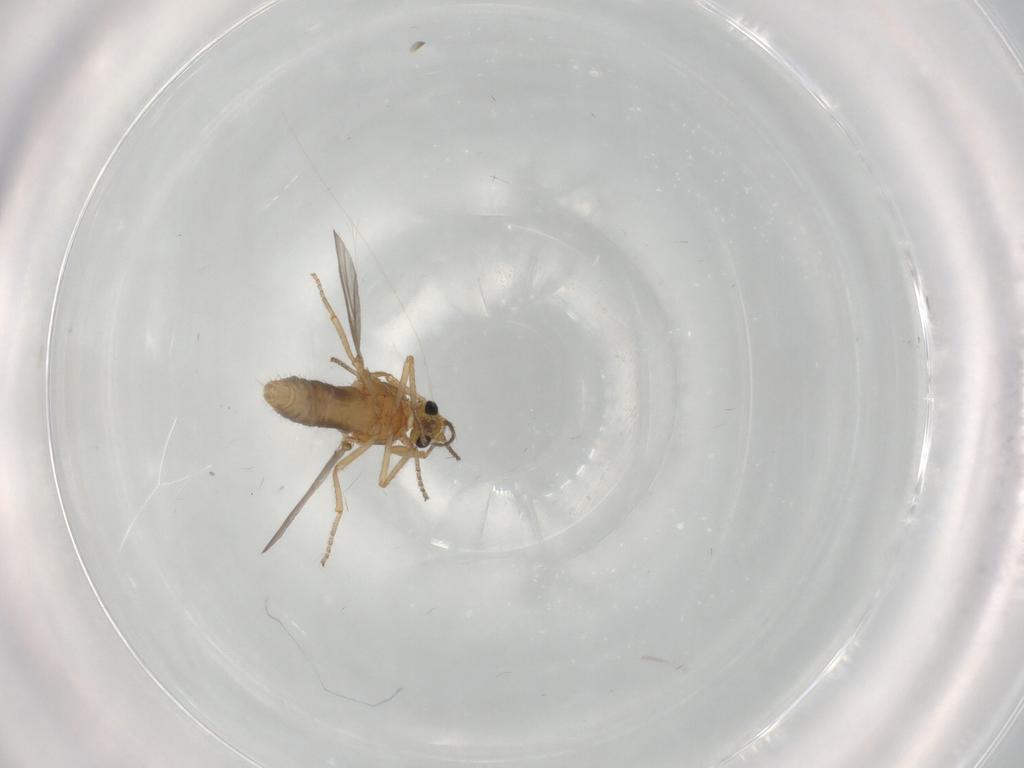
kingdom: Animalia
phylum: Arthropoda
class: Insecta
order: Diptera
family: Ceratopogonidae
